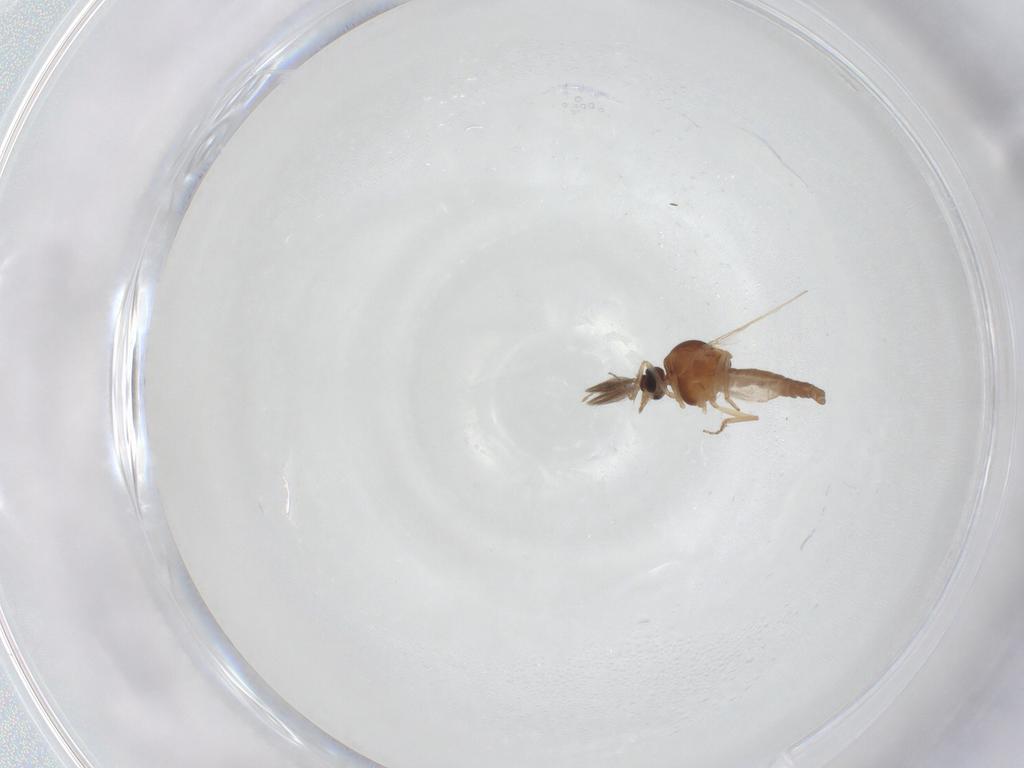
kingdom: Animalia
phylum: Arthropoda
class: Insecta
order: Diptera
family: Ceratopogonidae
